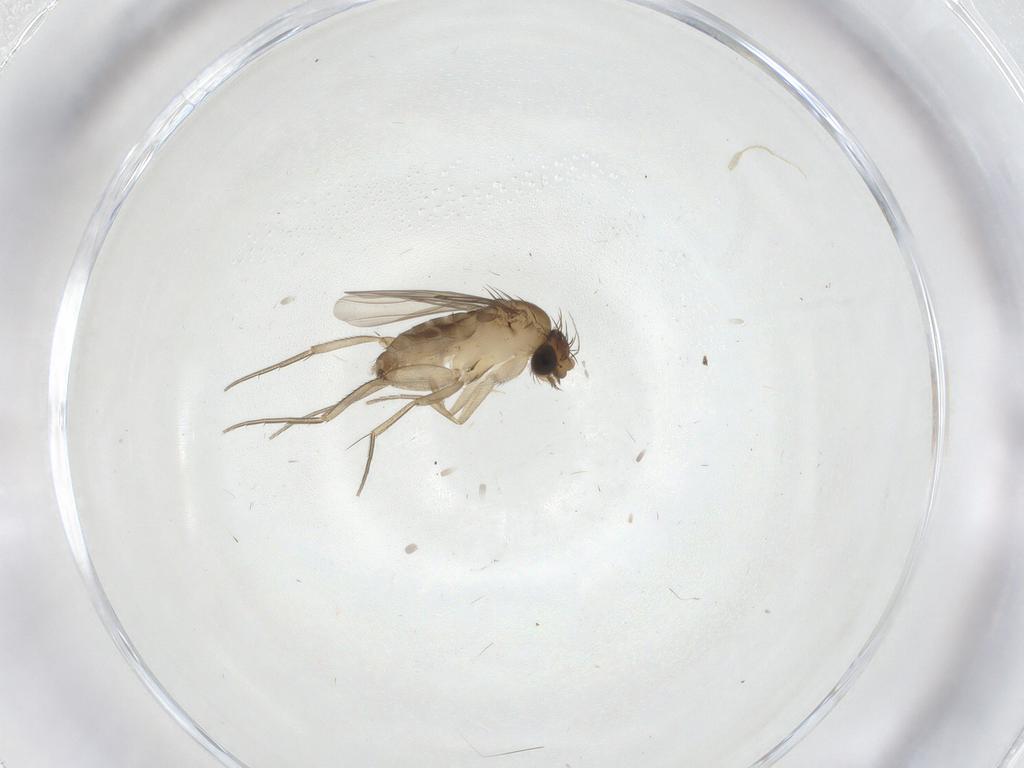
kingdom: Animalia
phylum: Arthropoda
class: Insecta
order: Diptera
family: Phoridae
